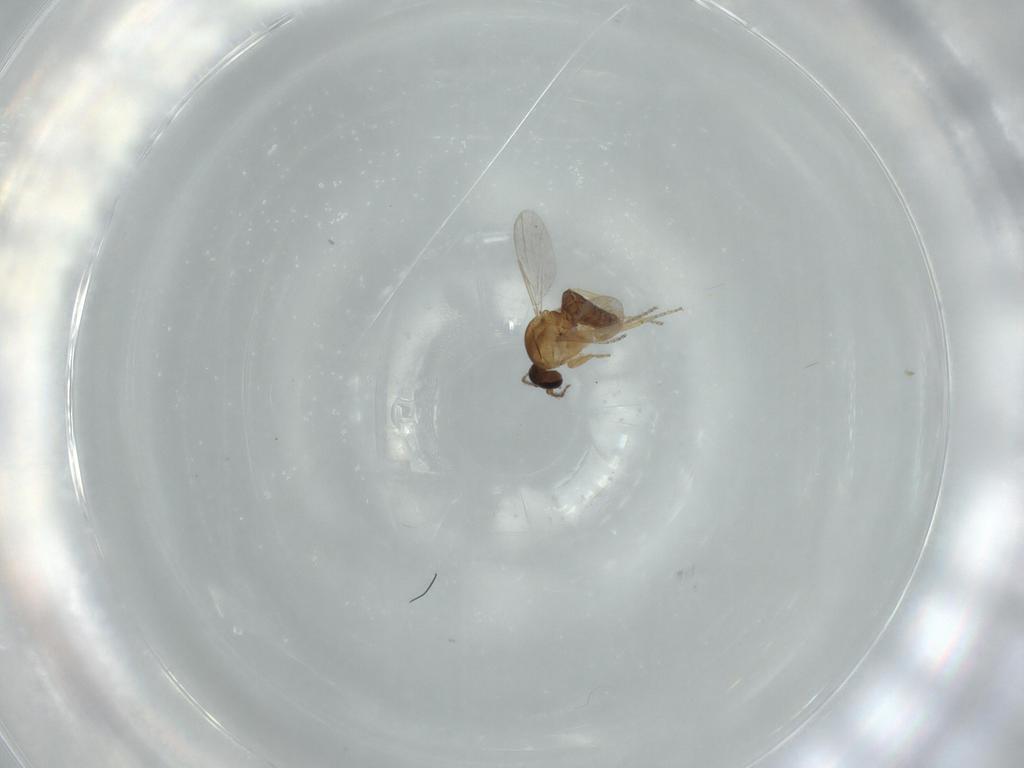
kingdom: Animalia
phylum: Arthropoda
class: Insecta
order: Diptera
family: Ceratopogonidae
